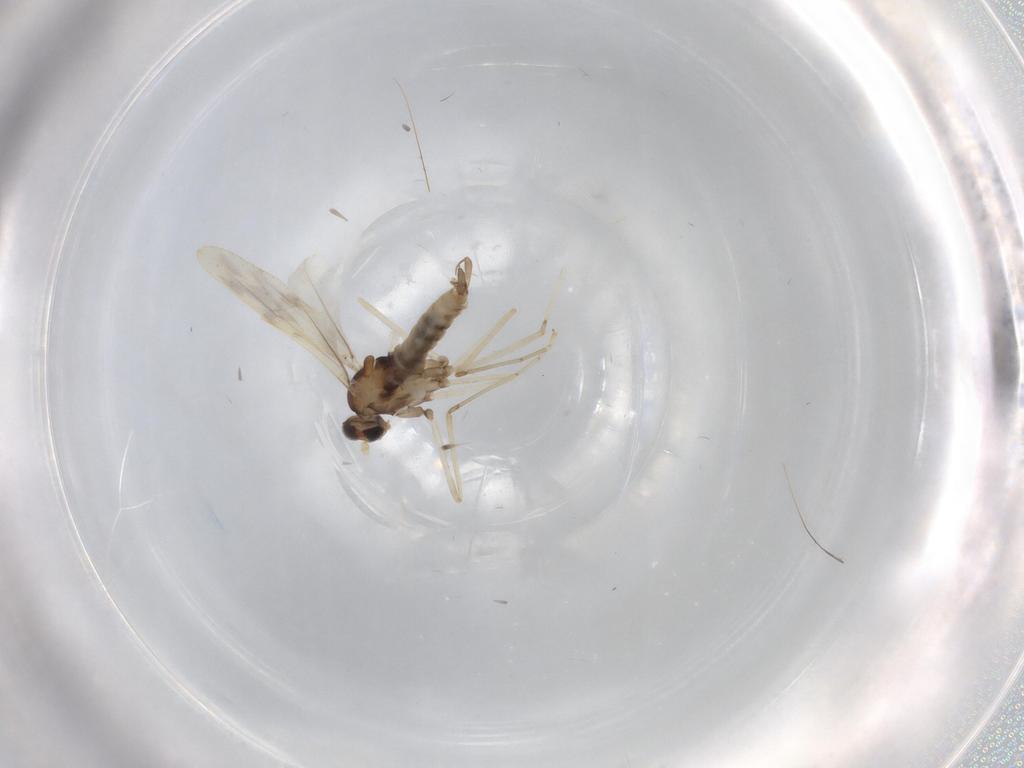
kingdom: Animalia
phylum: Arthropoda
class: Insecta
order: Diptera
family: Cecidomyiidae
